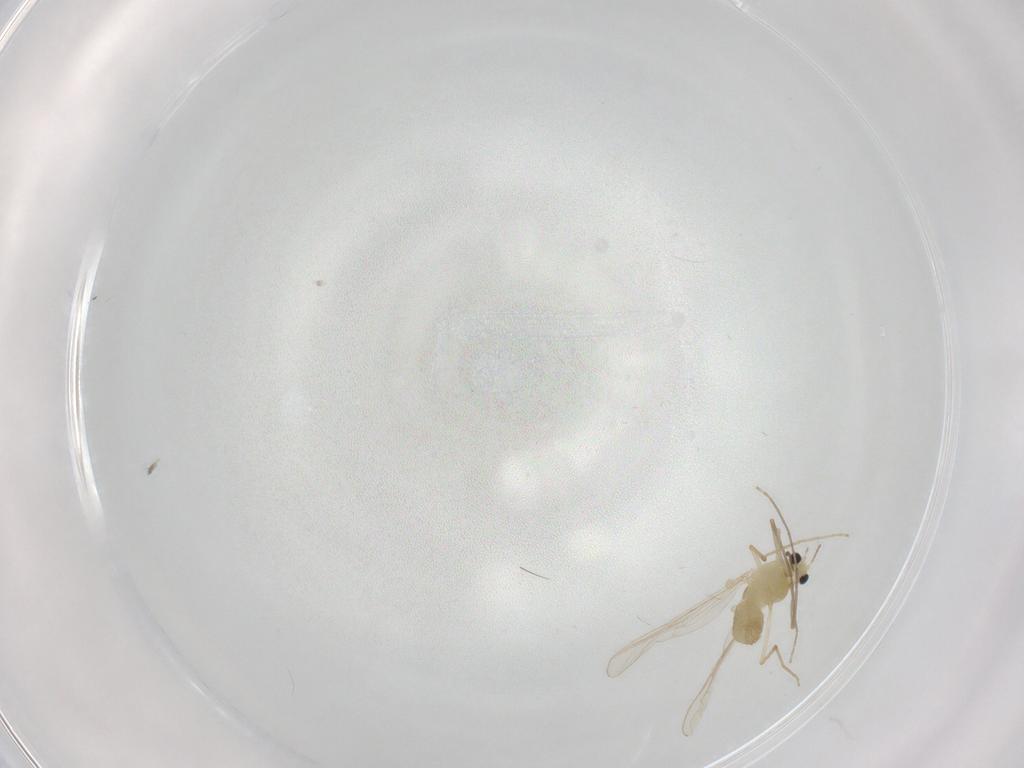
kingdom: Animalia
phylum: Arthropoda
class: Insecta
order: Diptera
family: Chironomidae
